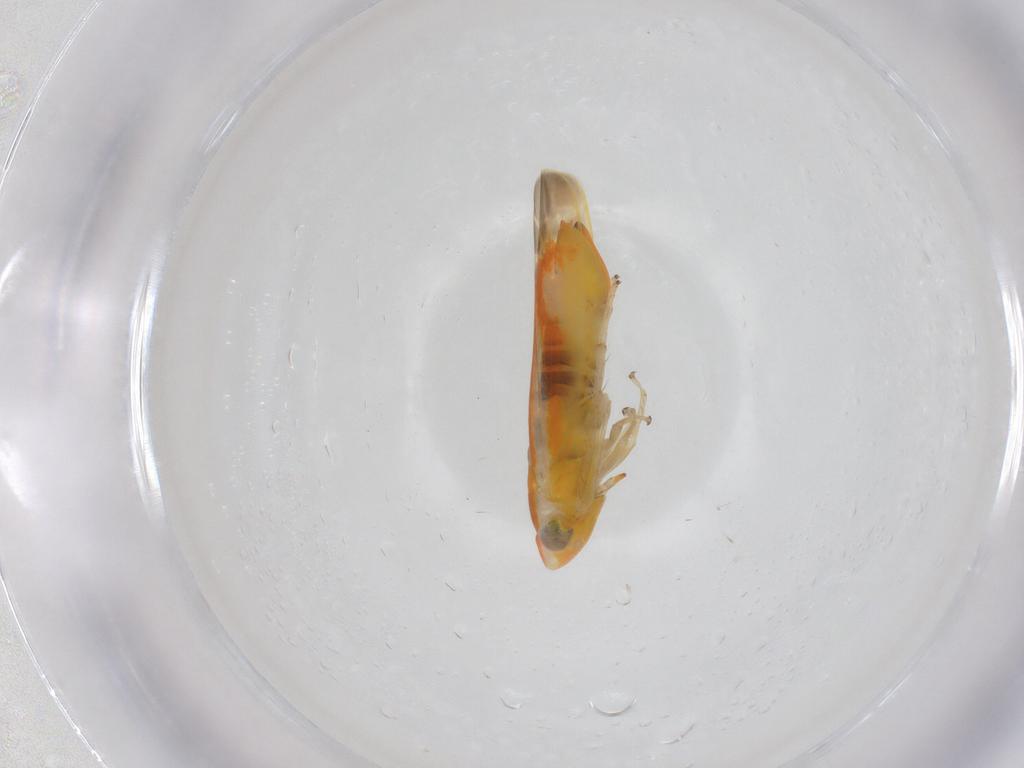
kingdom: Animalia
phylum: Arthropoda
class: Insecta
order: Hemiptera
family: Cicadellidae
